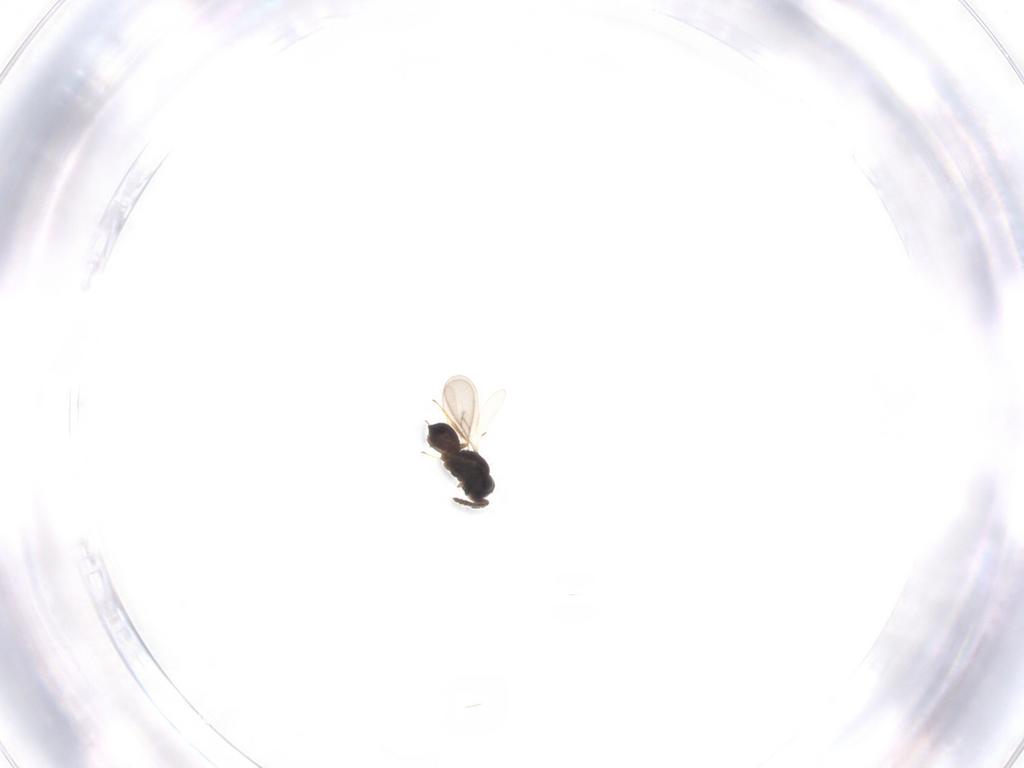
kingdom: Animalia
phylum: Arthropoda
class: Insecta
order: Hymenoptera
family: Scelionidae
